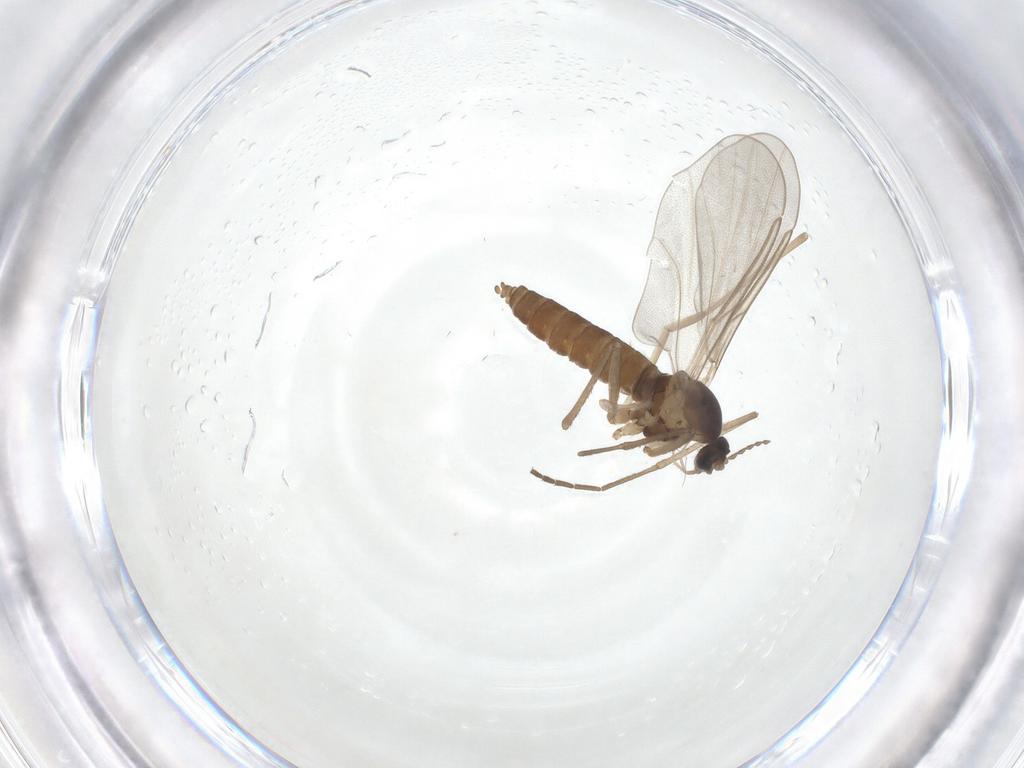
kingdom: Animalia
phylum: Arthropoda
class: Insecta
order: Diptera
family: Cecidomyiidae
